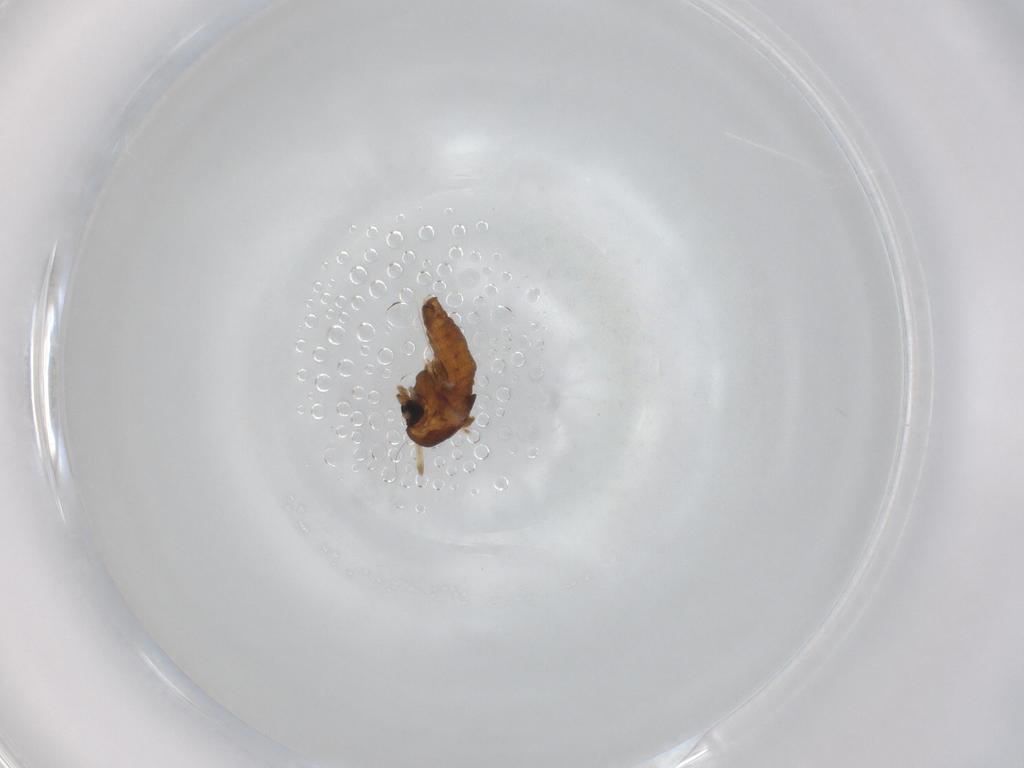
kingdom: Animalia
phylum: Arthropoda
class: Insecta
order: Diptera
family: Chironomidae
